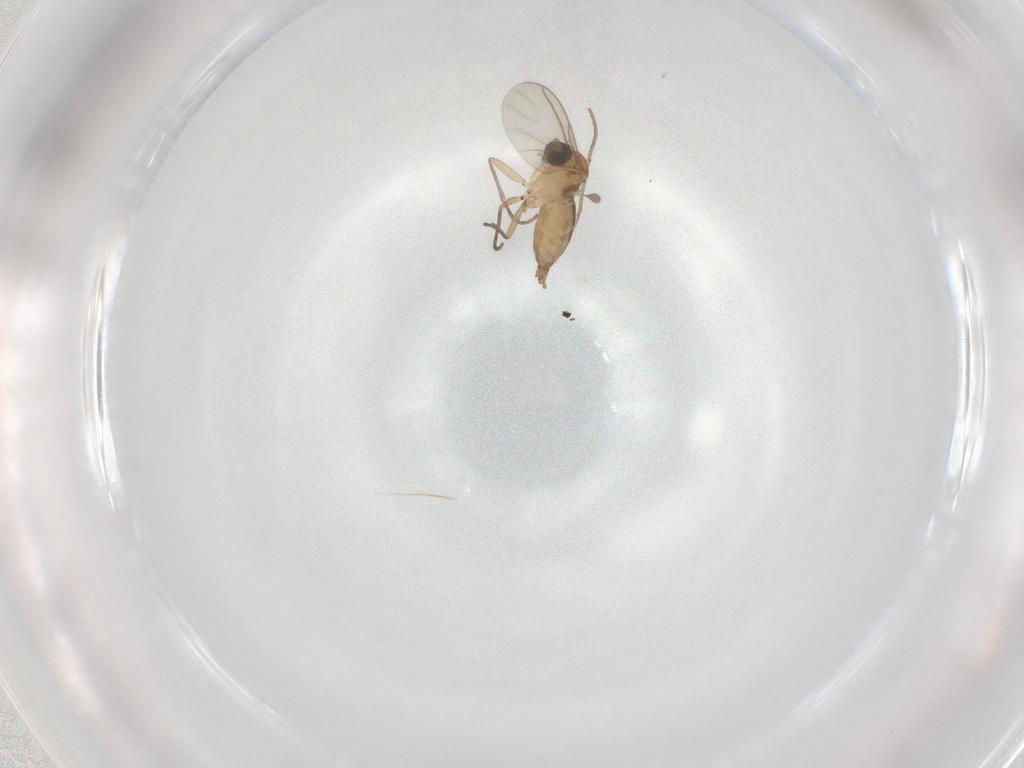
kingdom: Animalia
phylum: Arthropoda
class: Insecta
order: Diptera
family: Sciaridae
